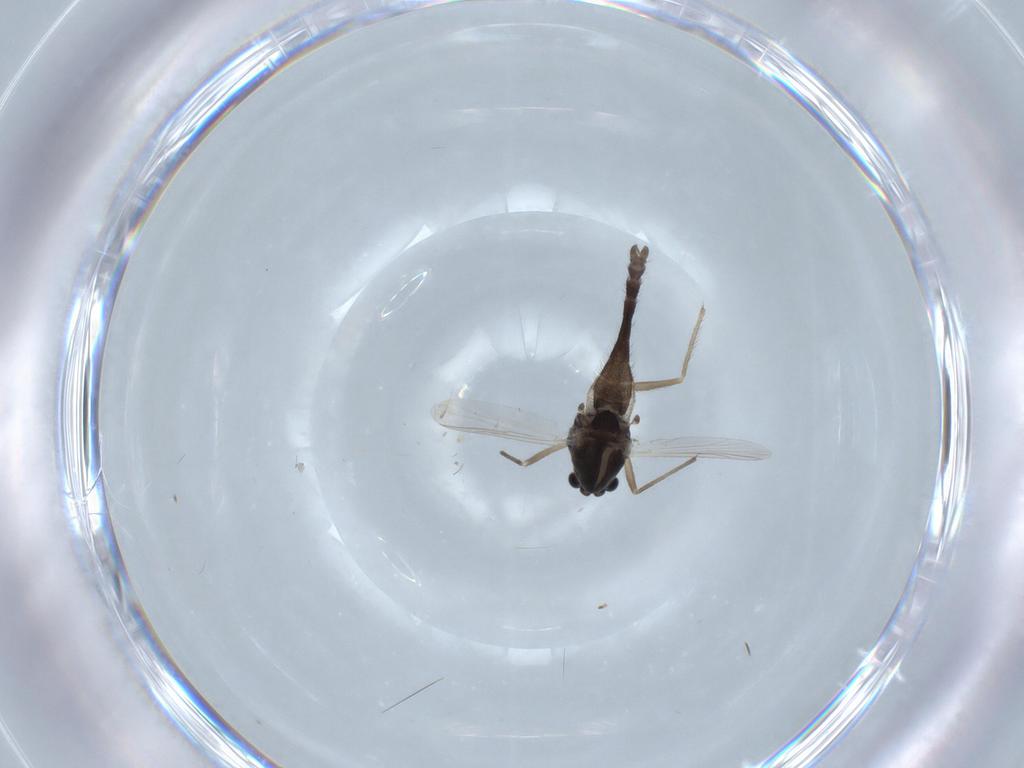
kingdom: Animalia
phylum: Arthropoda
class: Insecta
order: Diptera
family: Chironomidae
